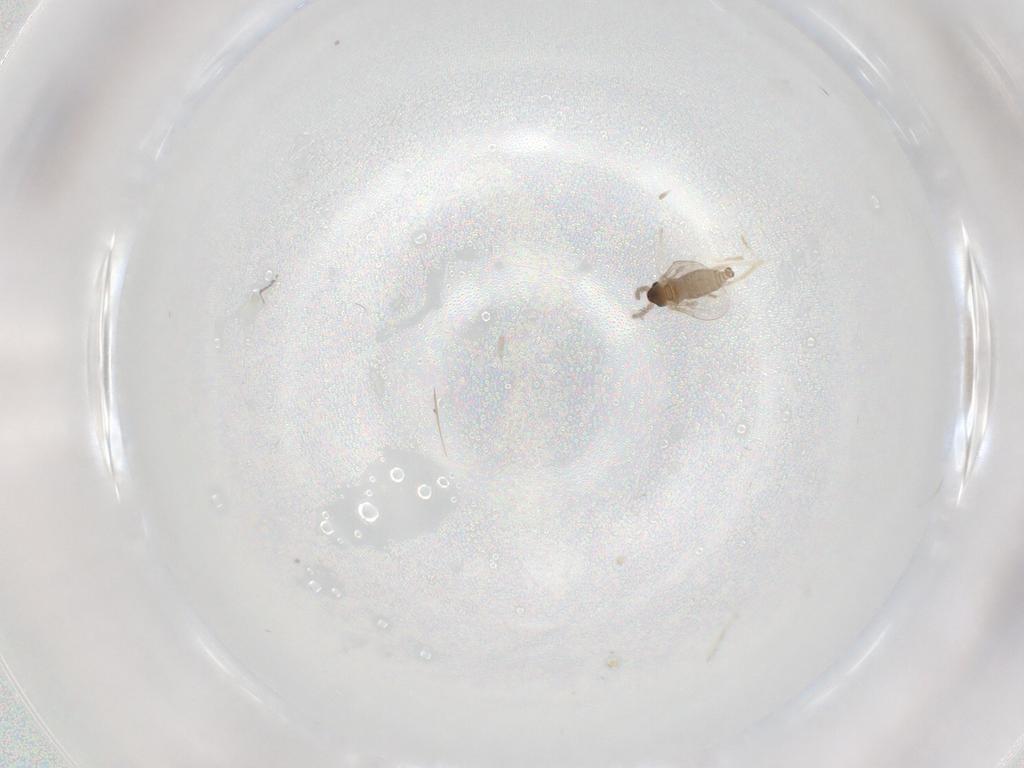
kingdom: Animalia
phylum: Arthropoda
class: Insecta
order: Diptera
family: Cecidomyiidae
